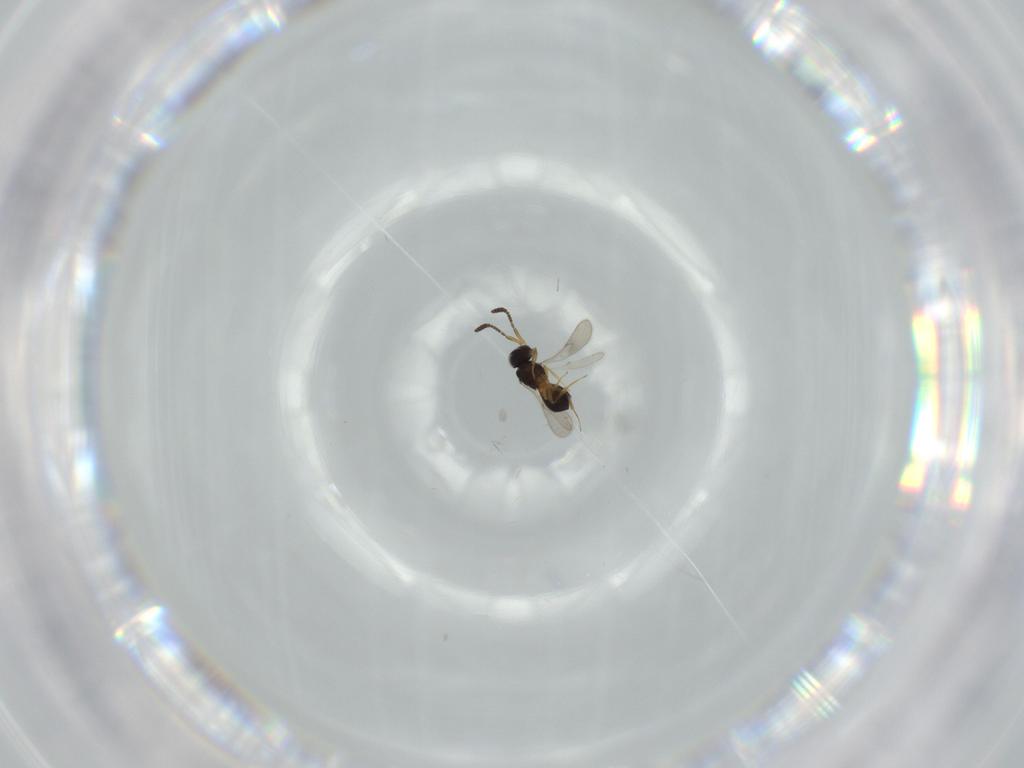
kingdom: Animalia
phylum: Arthropoda
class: Insecta
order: Hymenoptera
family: Scelionidae
